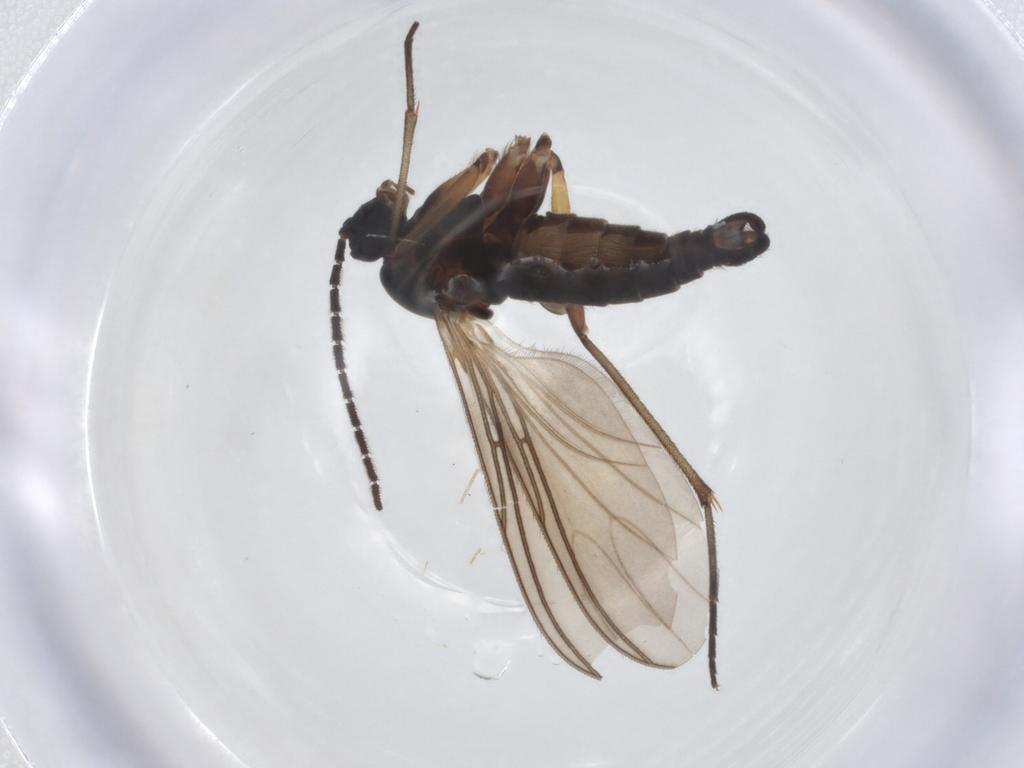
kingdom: Animalia
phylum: Arthropoda
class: Insecta
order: Diptera
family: Sciaridae
